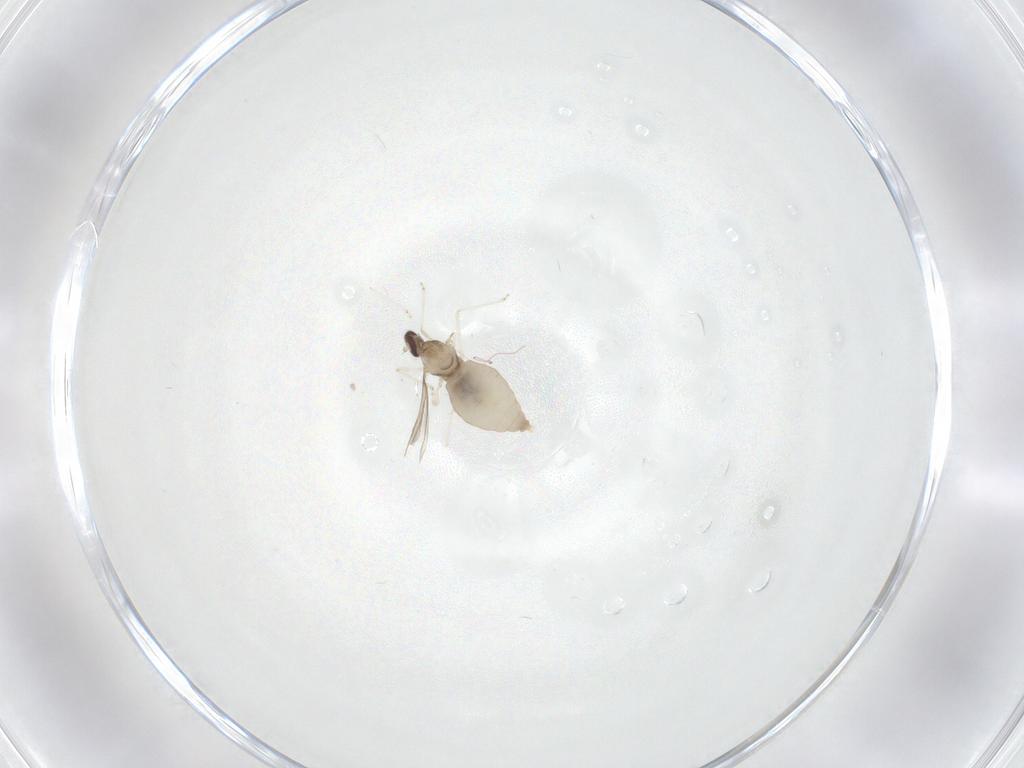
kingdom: Animalia
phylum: Arthropoda
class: Insecta
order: Diptera
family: Cecidomyiidae
